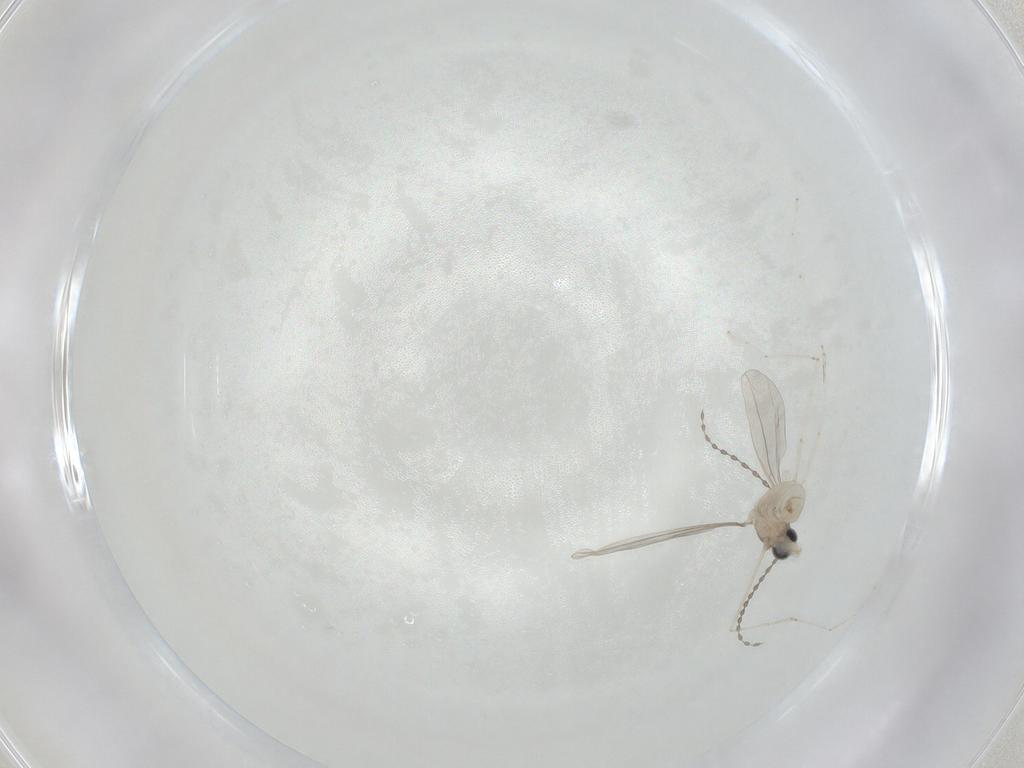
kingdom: Animalia
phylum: Arthropoda
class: Insecta
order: Diptera
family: Cecidomyiidae
